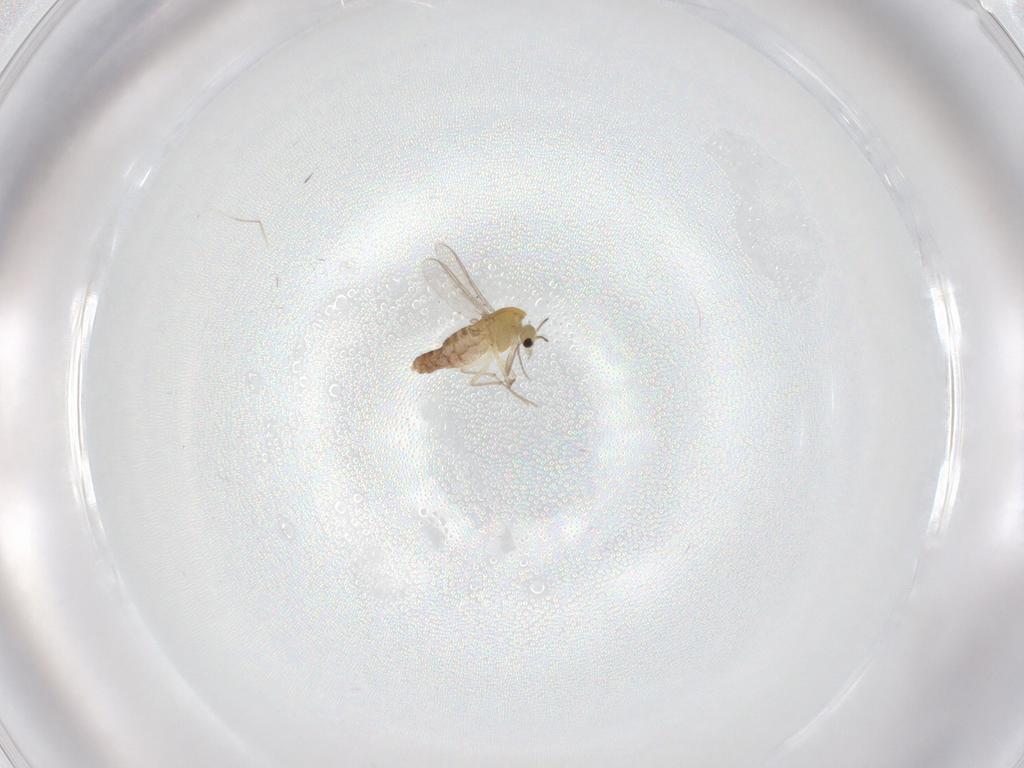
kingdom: Animalia
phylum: Arthropoda
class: Insecta
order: Diptera
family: Chironomidae
